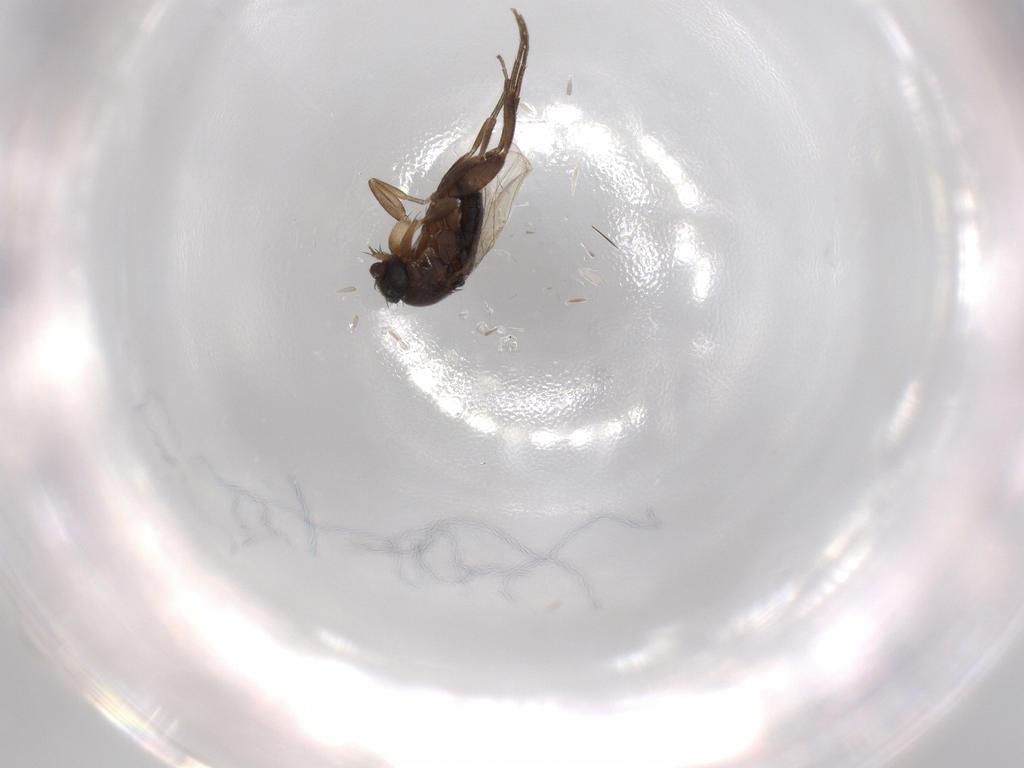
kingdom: Animalia
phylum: Arthropoda
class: Insecta
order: Diptera
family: Phoridae
